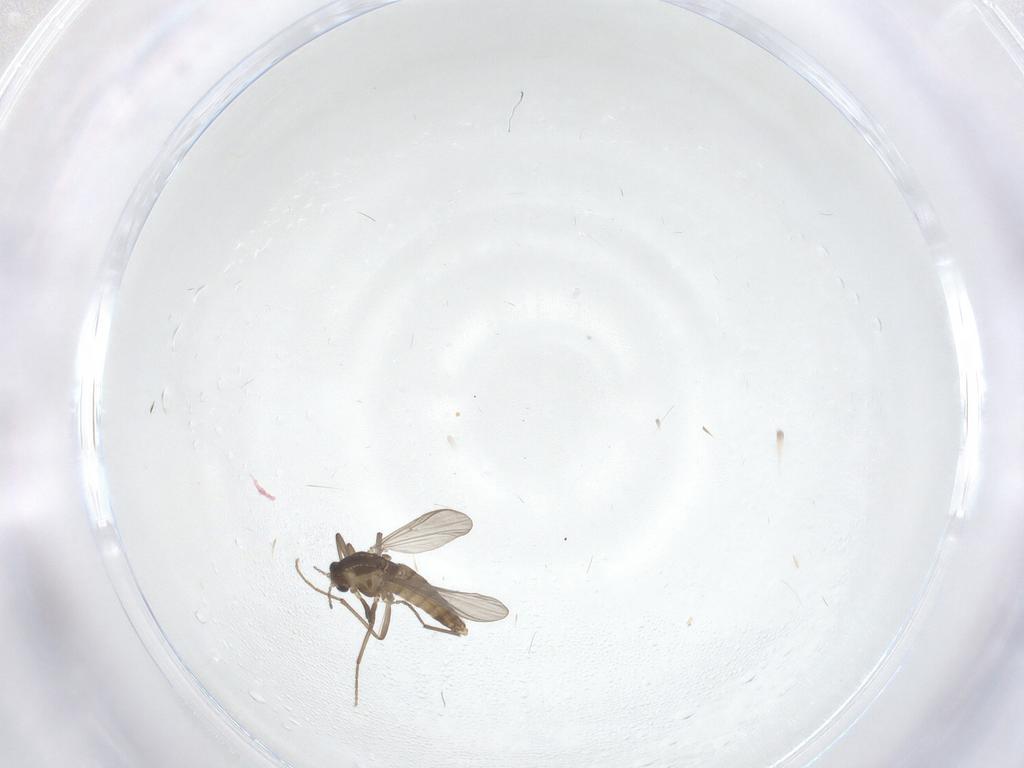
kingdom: Animalia
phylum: Arthropoda
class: Insecta
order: Diptera
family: Chironomidae
